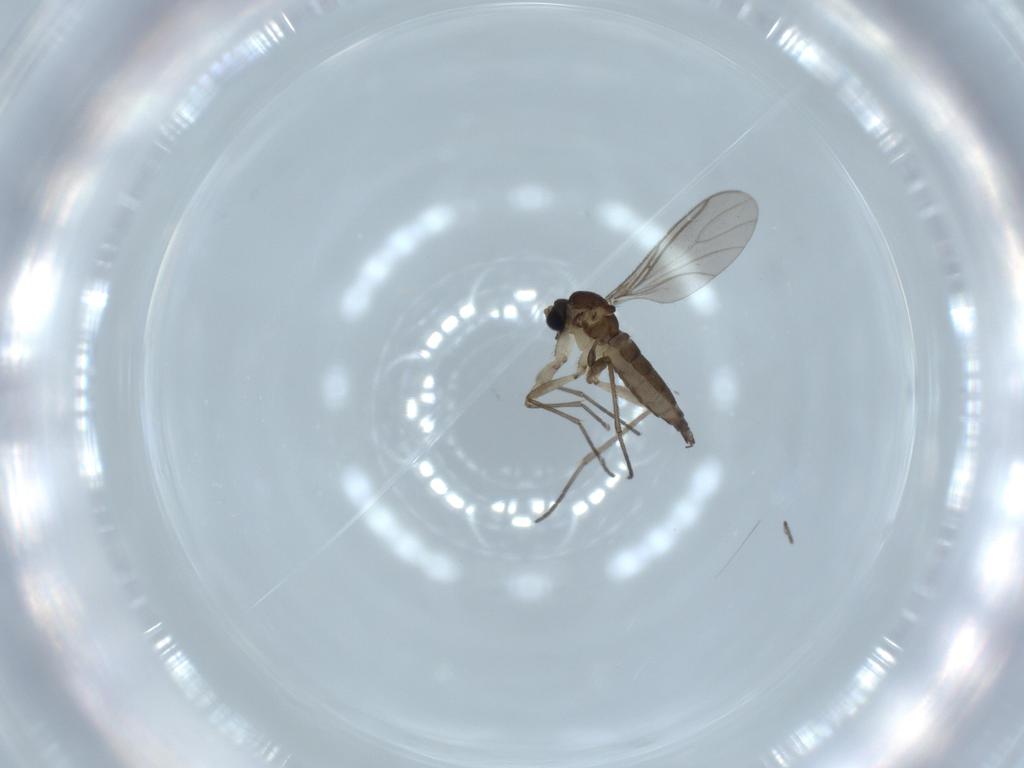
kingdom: Animalia
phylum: Arthropoda
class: Insecta
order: Diptera
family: Sciaridae
